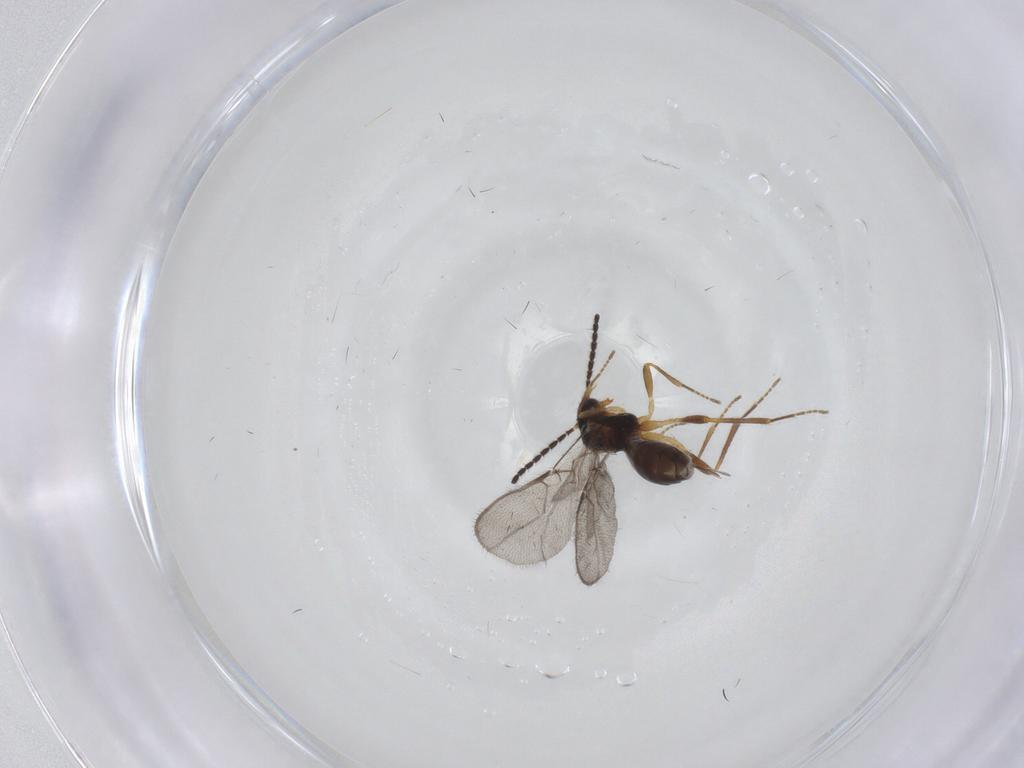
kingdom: Animalia
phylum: Arthropoda
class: Insecta
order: Hymenoptera
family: Braconidae
